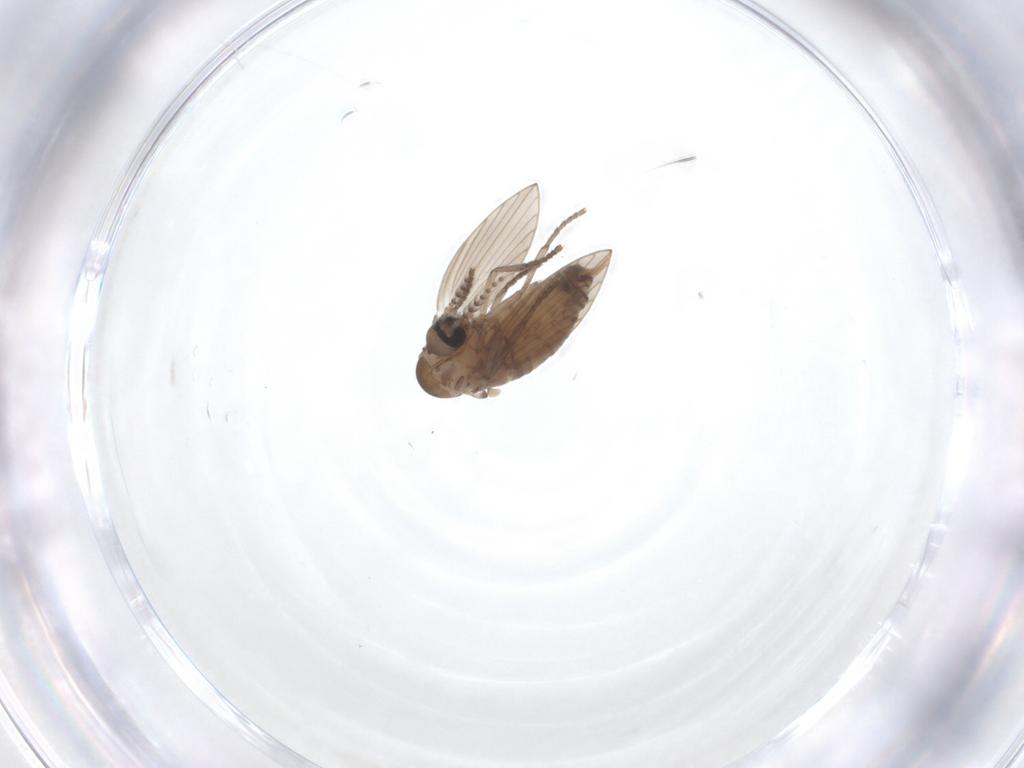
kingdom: Animalia
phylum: Arthropoda
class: Insecta
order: Diptera
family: Psychodidae
